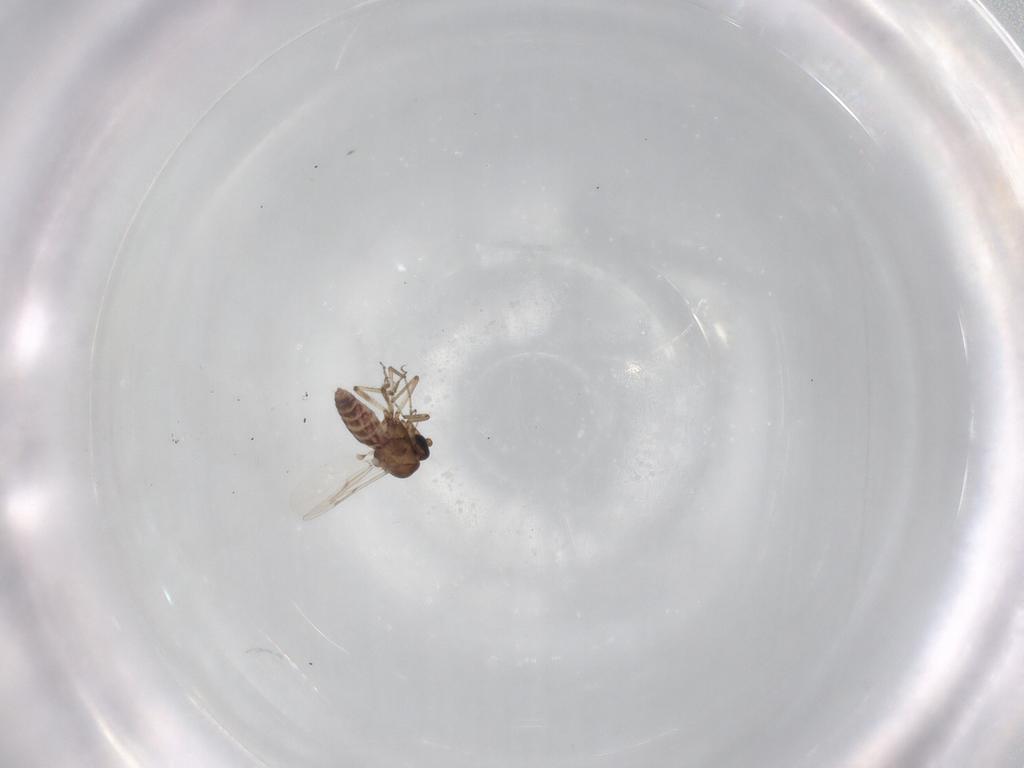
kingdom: Animalia
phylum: Arthropoda
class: Insecta
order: Diptera
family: Ceratopogonidae
